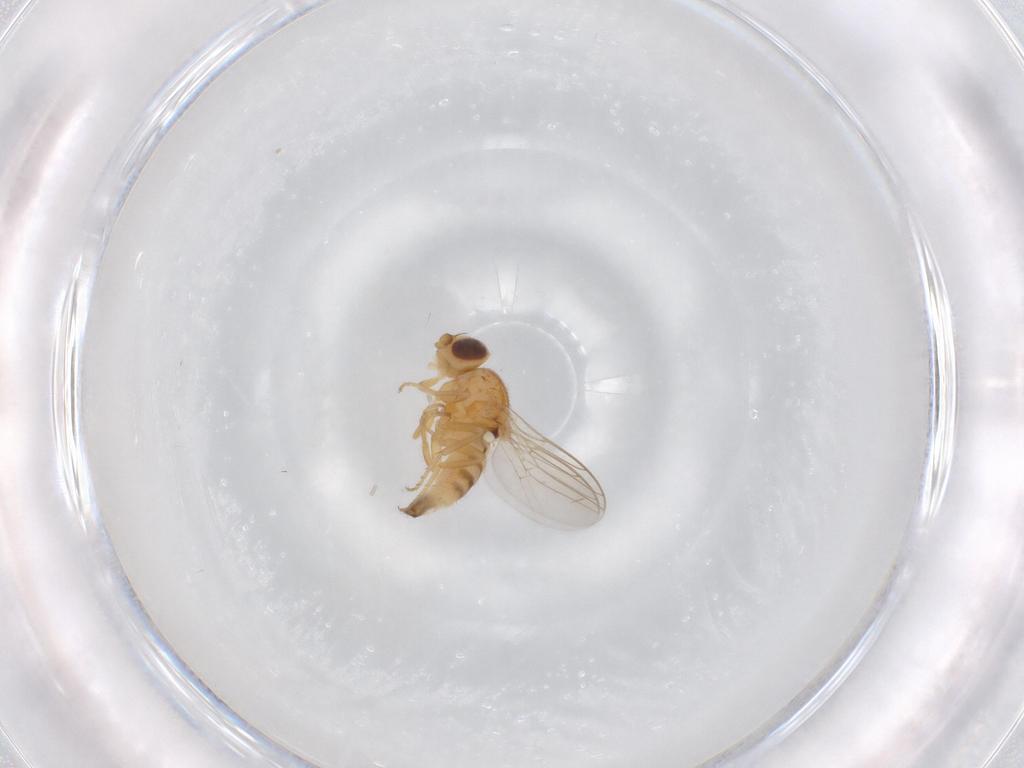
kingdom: Animalia
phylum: Arthropoda
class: Insecta
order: Diptera
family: Chloropidae
